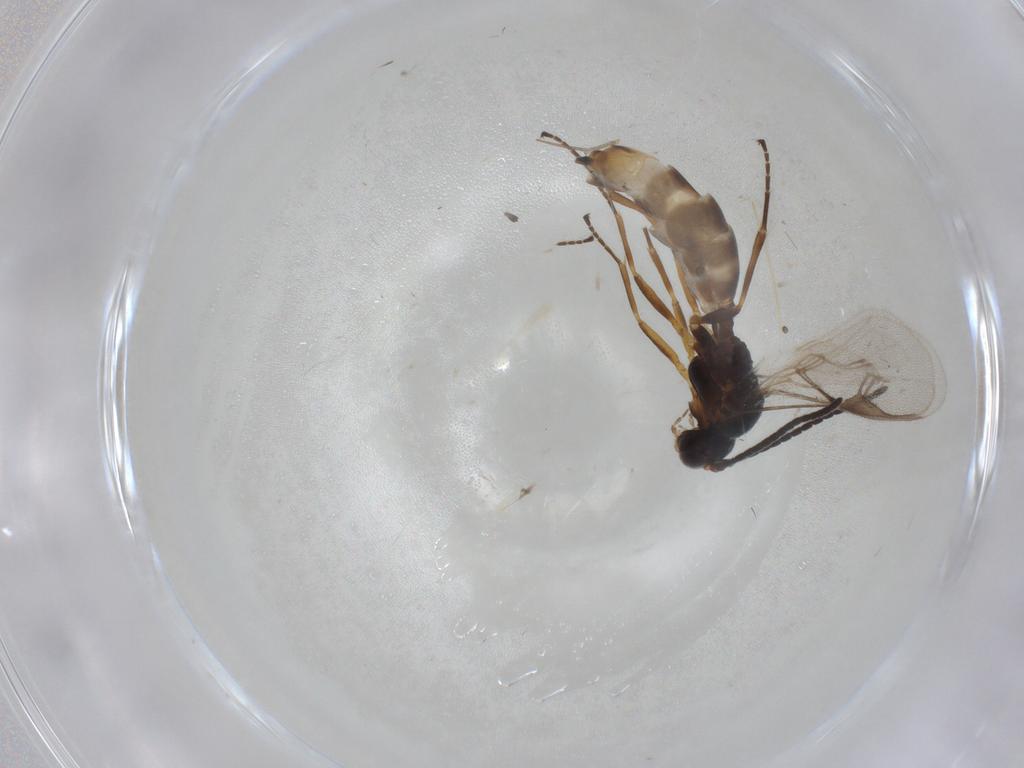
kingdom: Animalia
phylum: Arthropoda
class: Insecta
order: Hymenoptera
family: Braconidae
